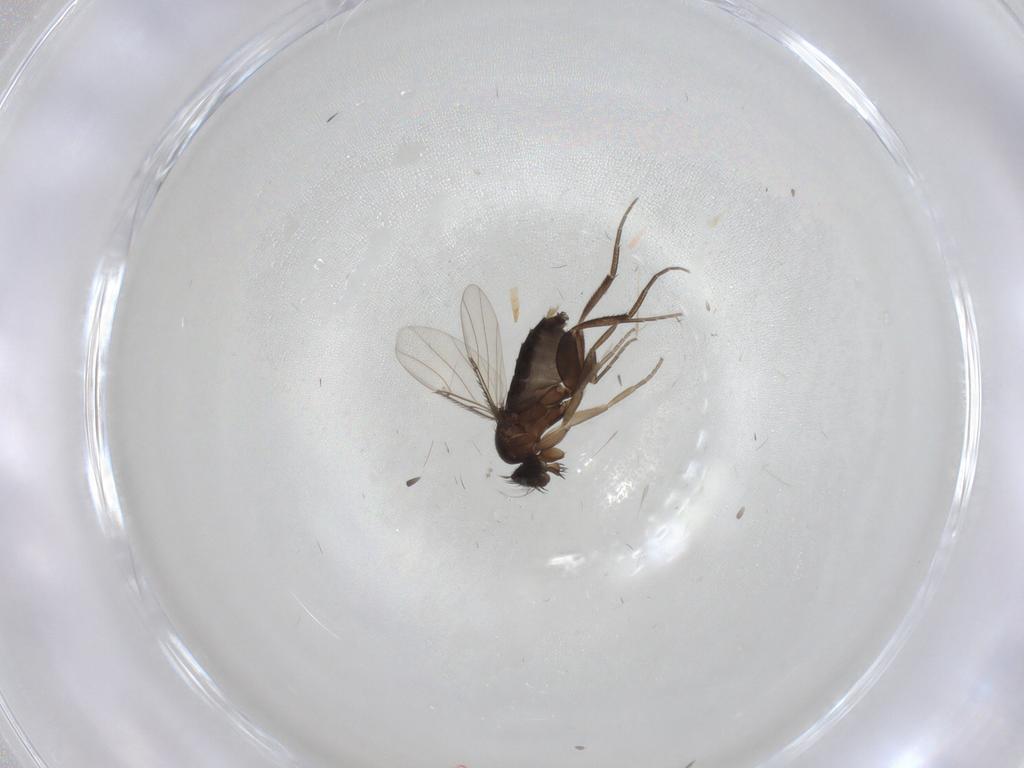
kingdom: Animalia
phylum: Arthropoda
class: Insecta
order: Diptera
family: Phoridae
